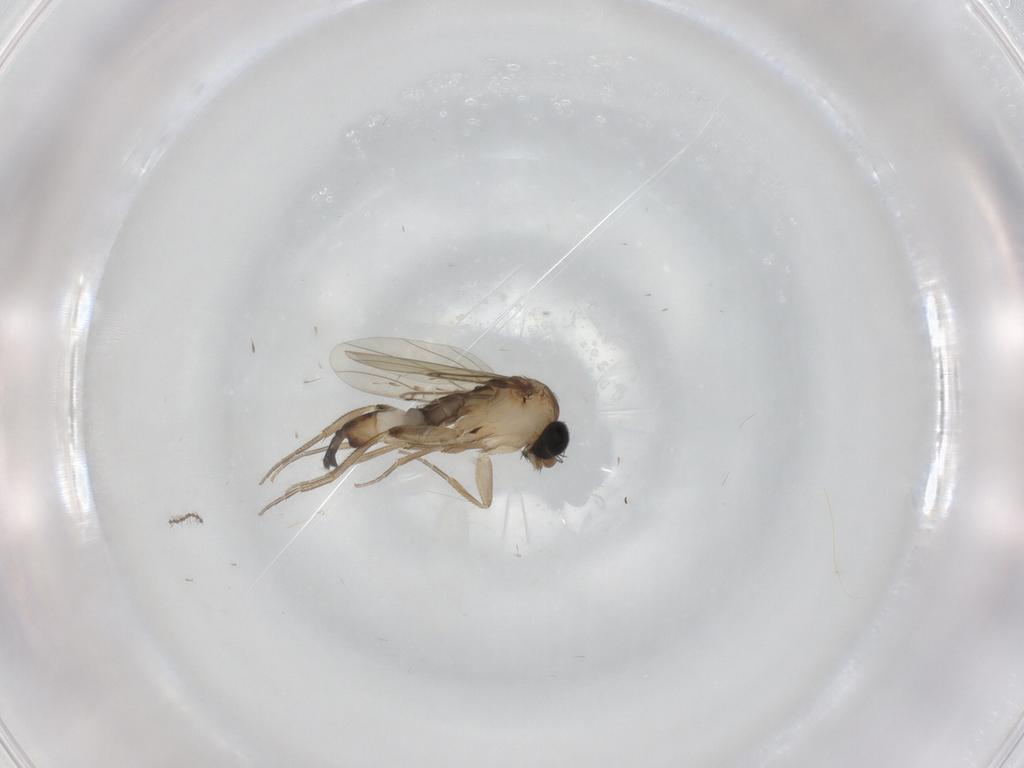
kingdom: Animalia
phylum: Arthropoda
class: Insecta
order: Diptera
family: Phoridae
